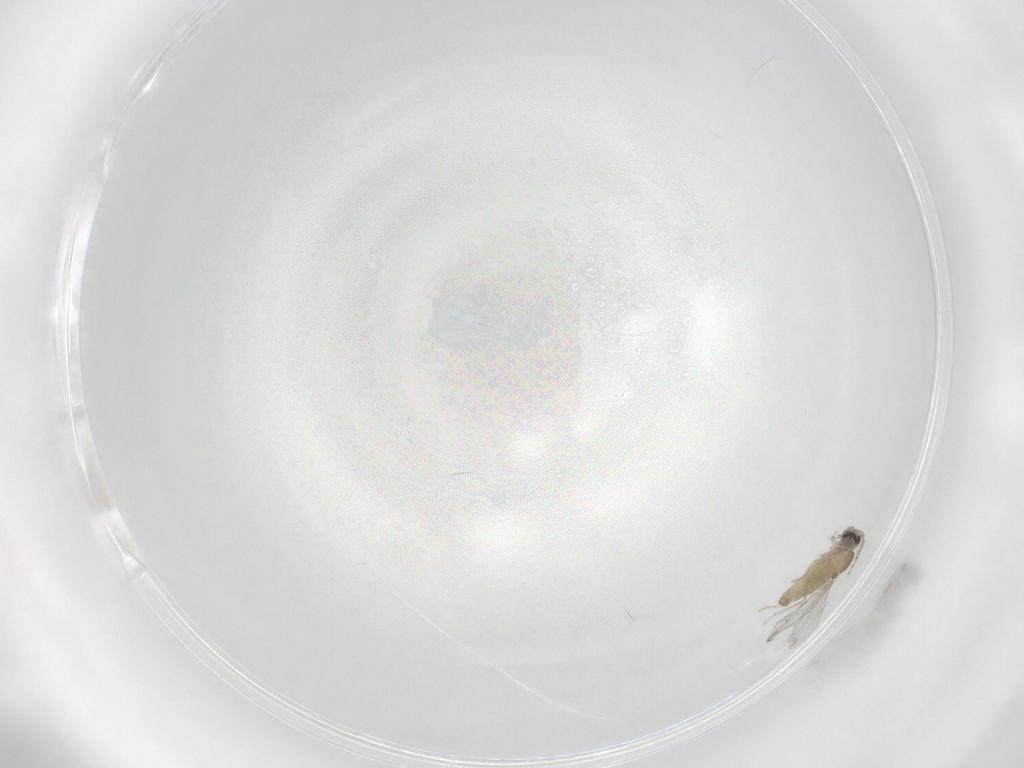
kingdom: Animalia
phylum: Arthropoda
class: Insecta
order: Diptera
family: Cecidomyiidae
